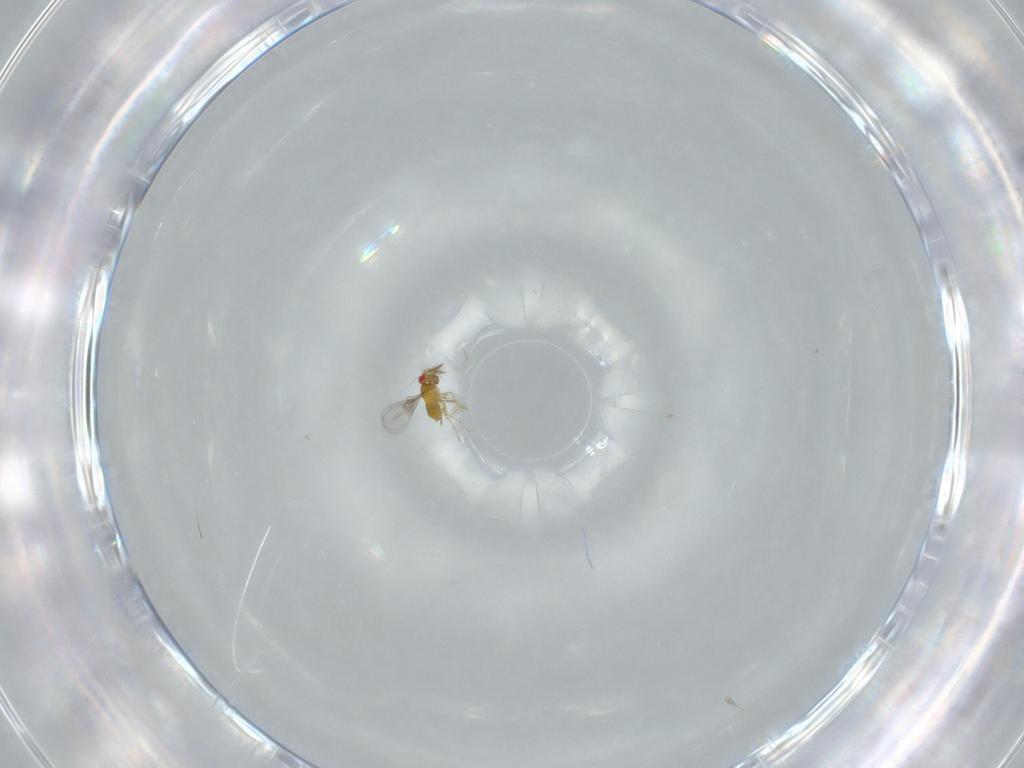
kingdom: Animalia
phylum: Arthropoda
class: Insecta
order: Hymenoptera
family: Trichogrammatidae
